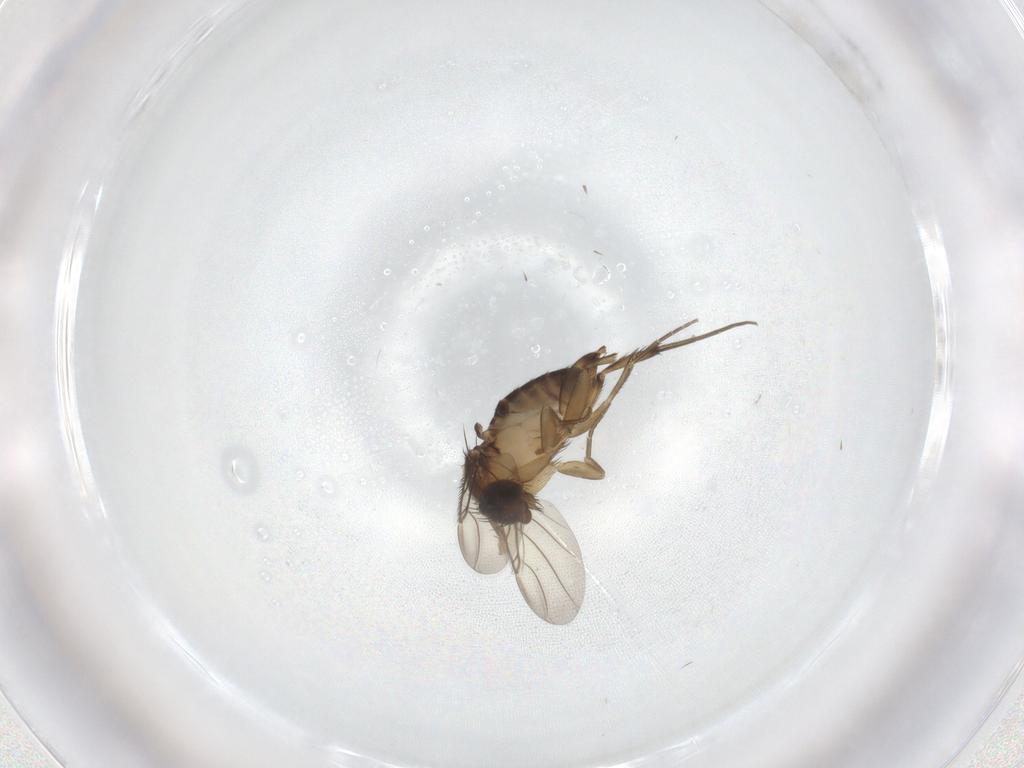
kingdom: Animalia
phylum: Arthropoda
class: Insecta
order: Diptera
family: Phoridae
